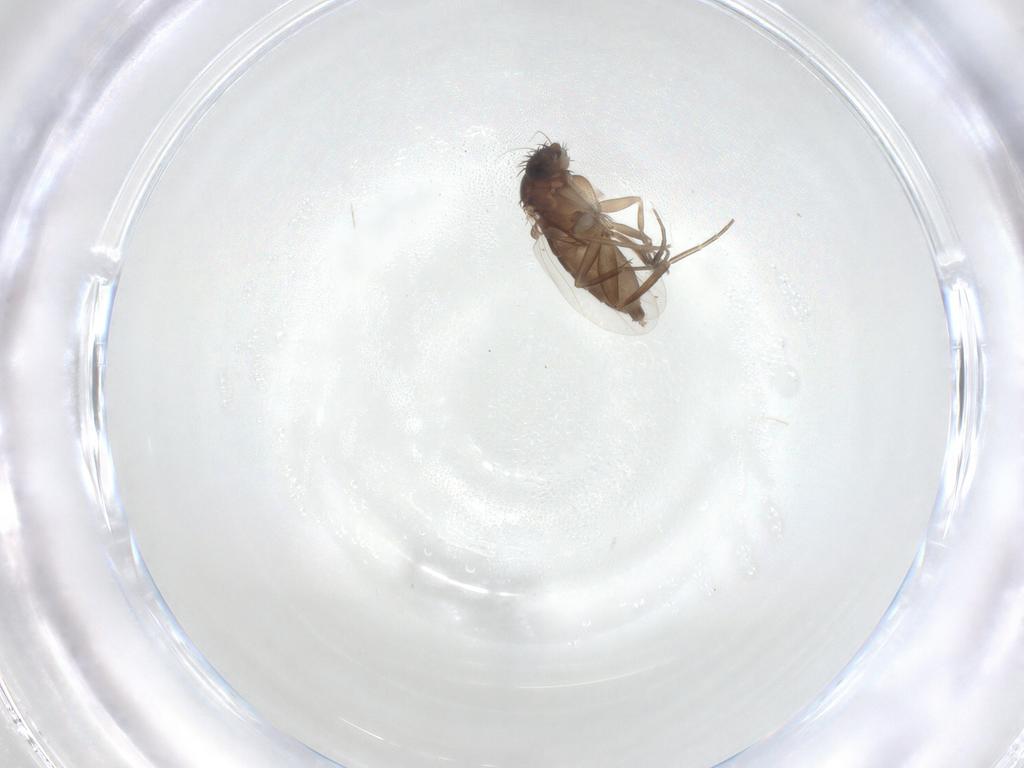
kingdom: Animalia
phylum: Arthropoda
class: Insecta
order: Diptera
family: Phoridae
